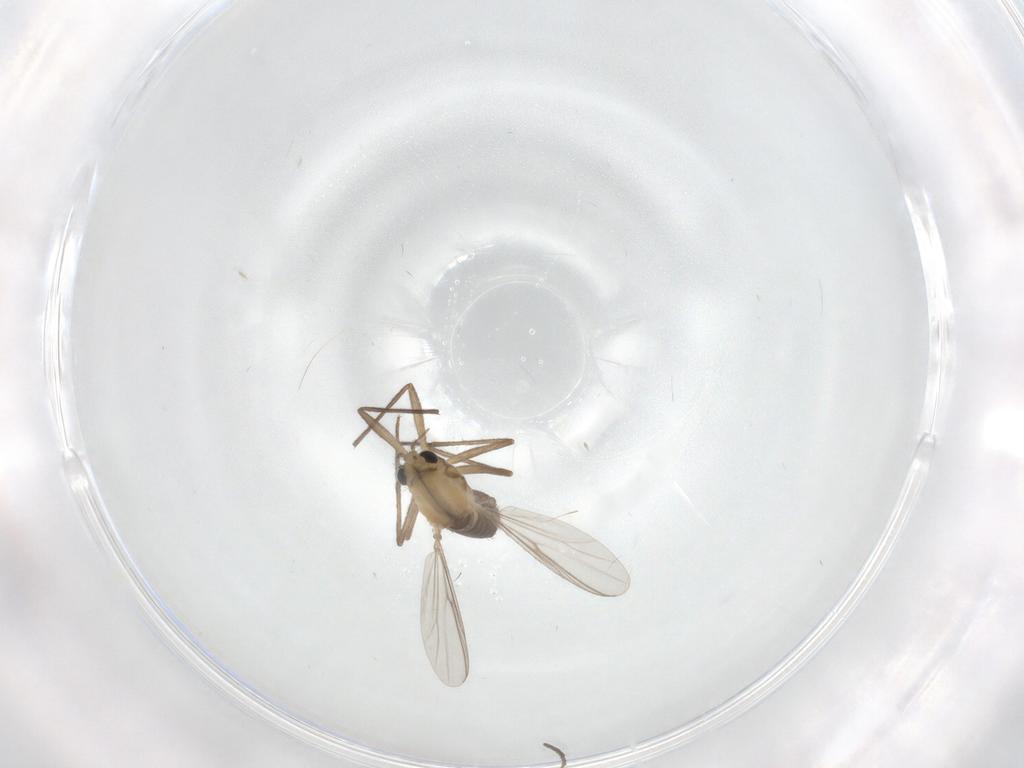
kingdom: Animalia
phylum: Arthropoda
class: Insecta
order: Diptera
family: Chironomidae
